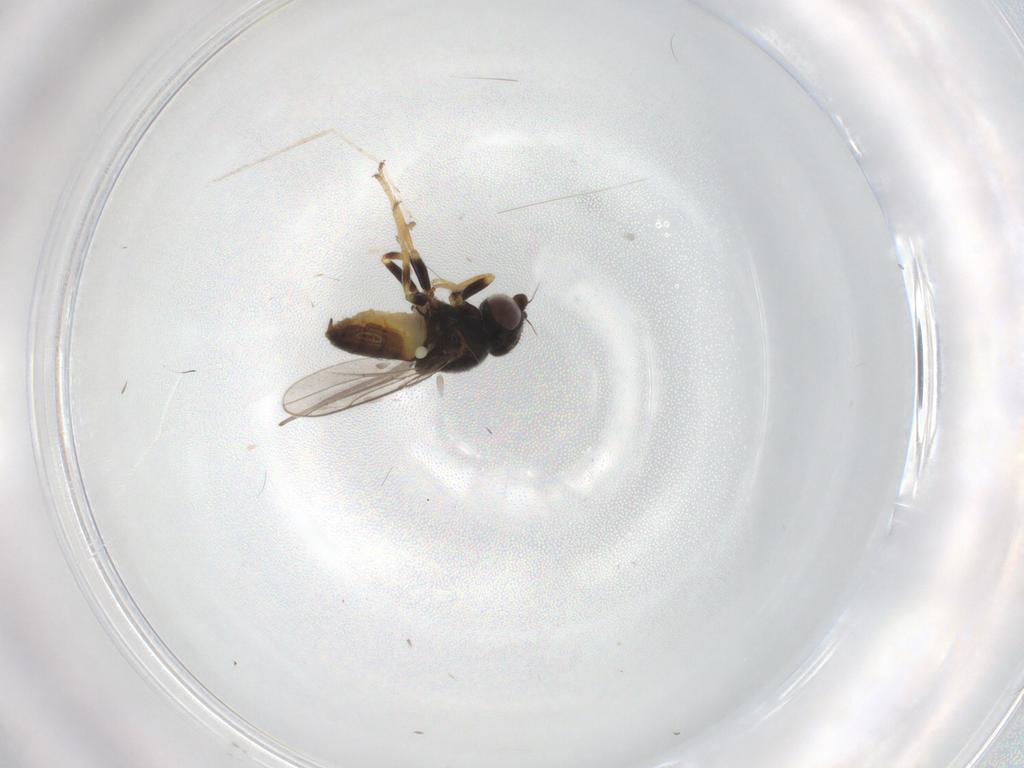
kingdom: Animalia
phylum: Arthropoda
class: Insecta
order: Diptera
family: Chloropidae
